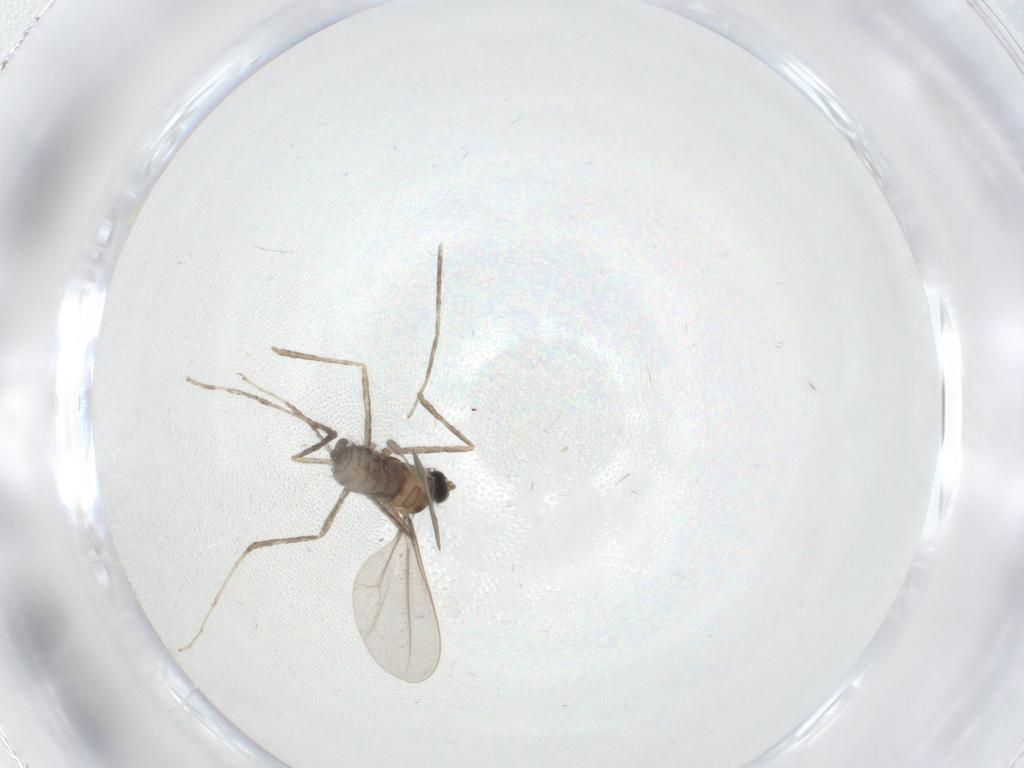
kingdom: Animalia
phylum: Arthropoda
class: Insecta
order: Diptera
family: Cecidomyiidae
